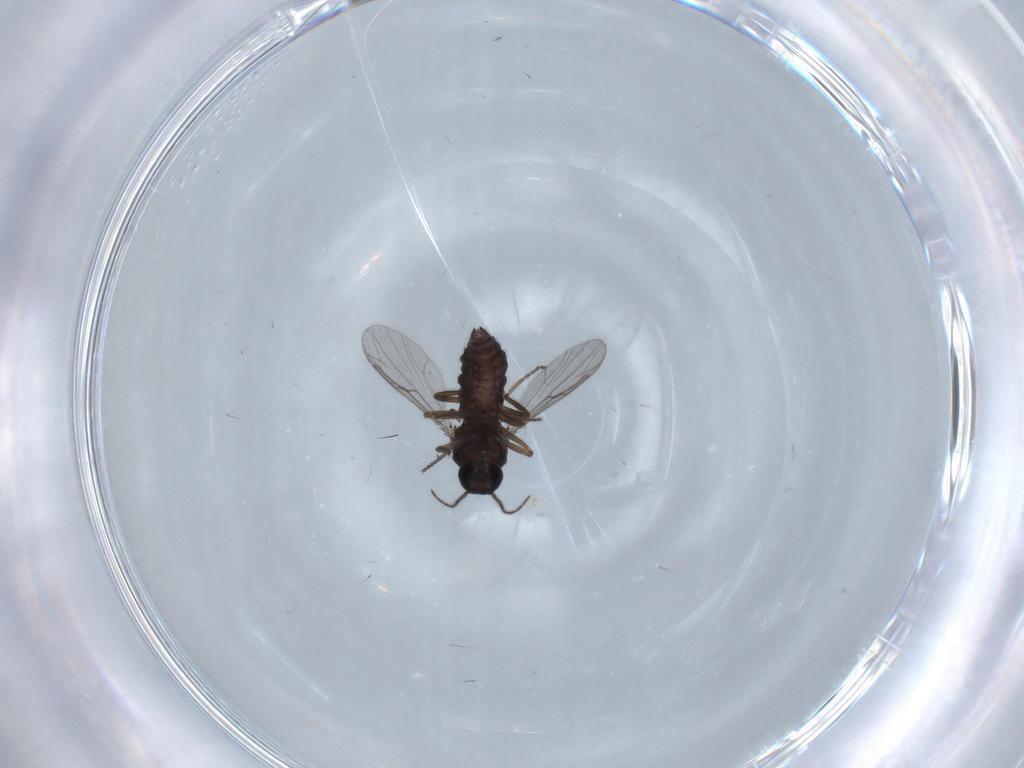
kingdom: Animalia
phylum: Arthropoda
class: Insecta
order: Diptera
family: Ceratopogonidae
